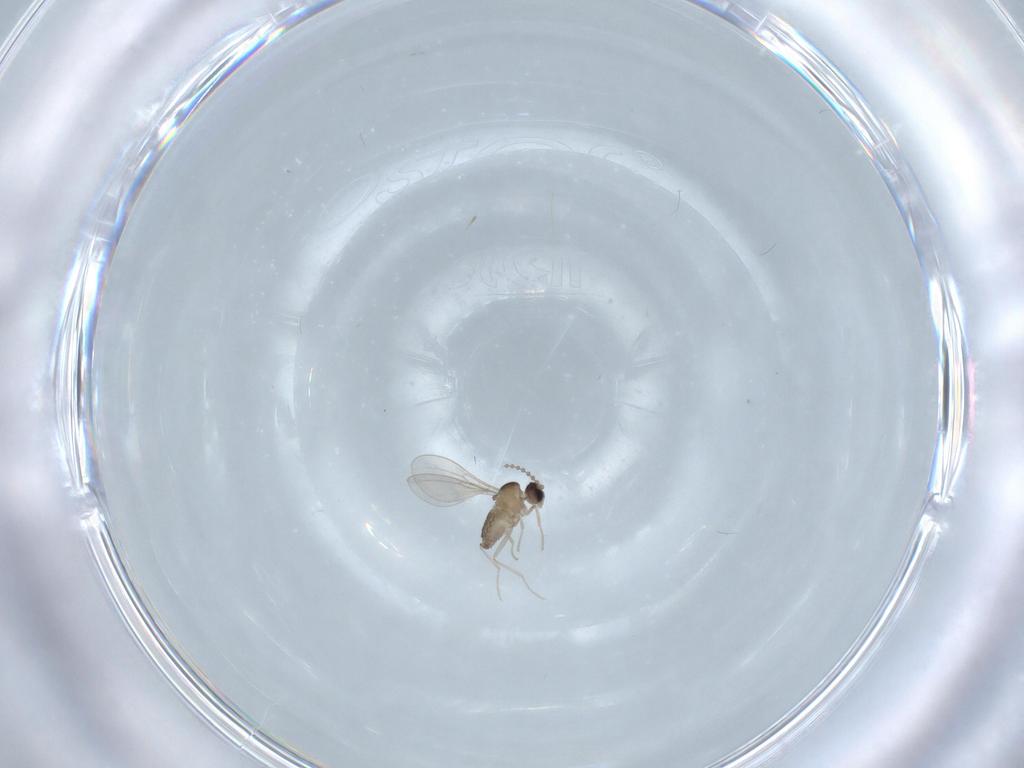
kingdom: Animalia
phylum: Arthropoda
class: Insecta
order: Diptera
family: Cecidomyiidae
